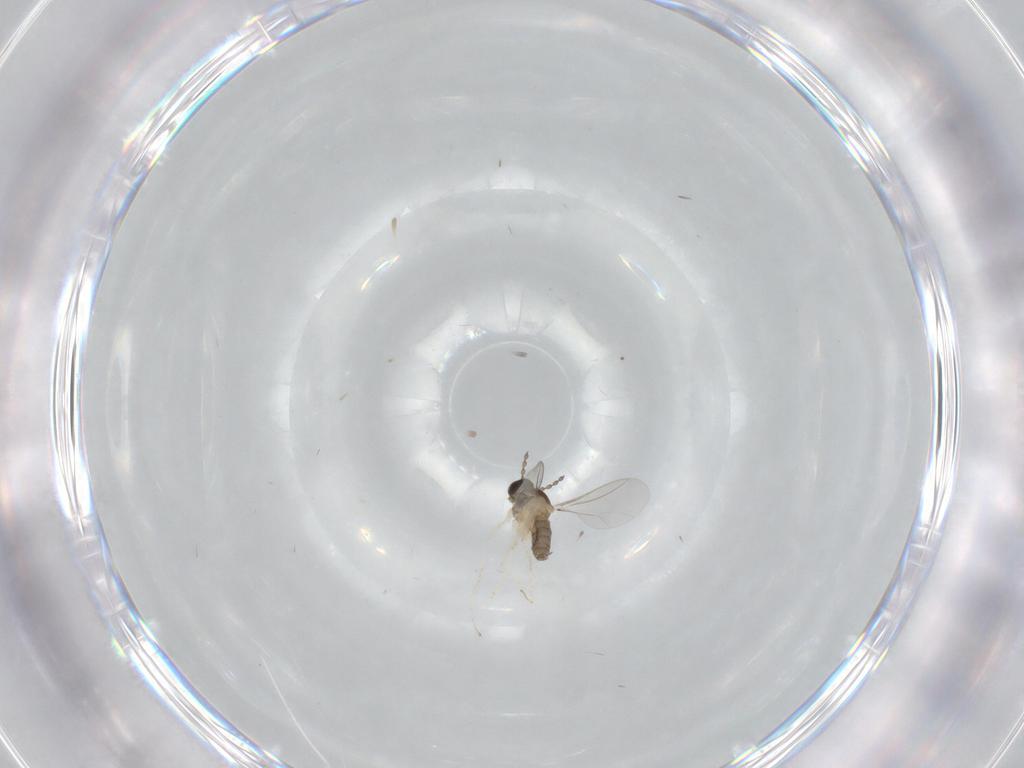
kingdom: Animalia
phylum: Arthropoda
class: Insecta
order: Diptera
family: Cecidomyiidae
